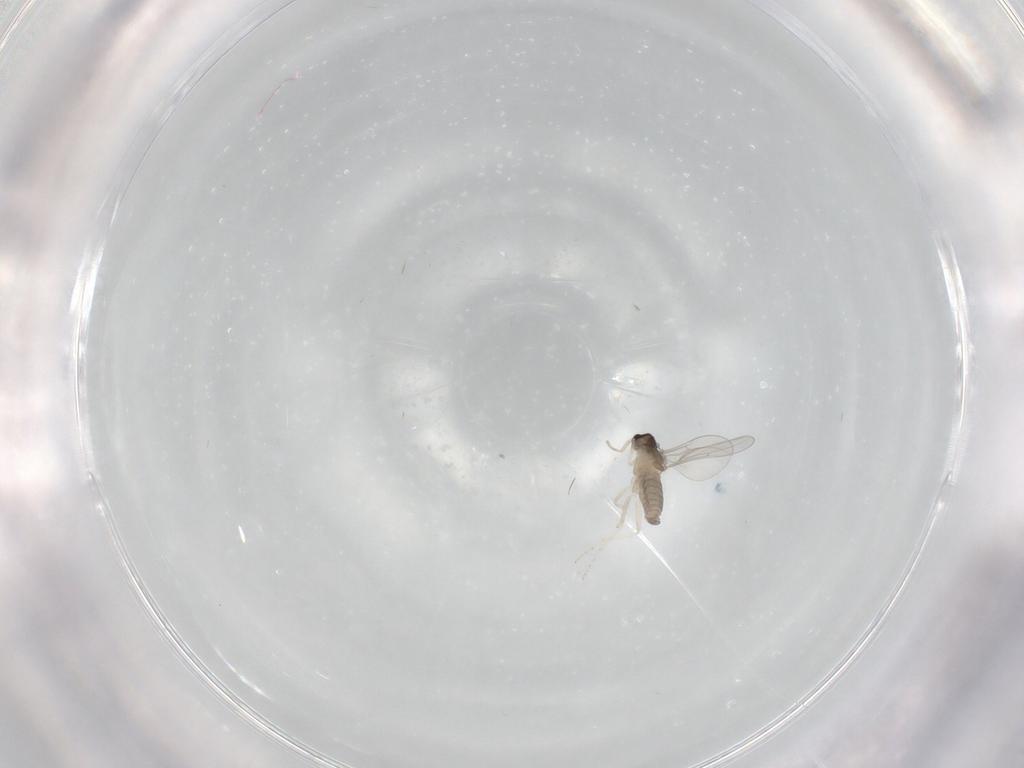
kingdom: Animalia
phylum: Arthropoda
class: Insecta
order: Diptera
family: Cecidomyiidae
